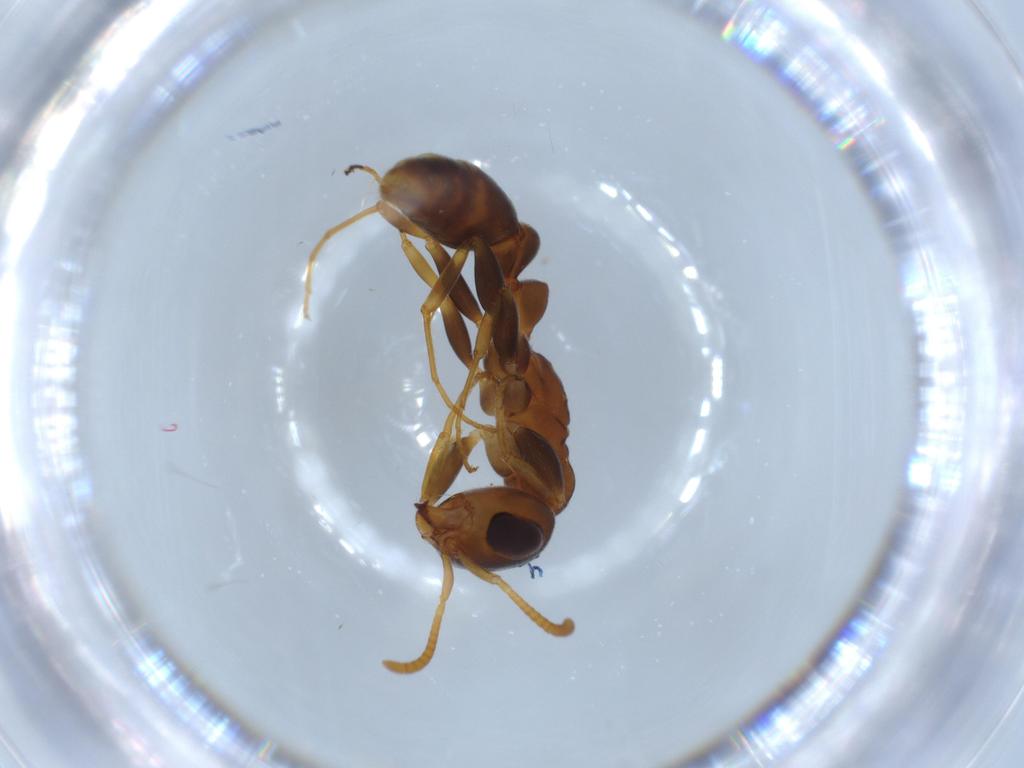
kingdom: Animalia
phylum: Arthropoda
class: Insecta
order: Hymenoptera
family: Formicidae
